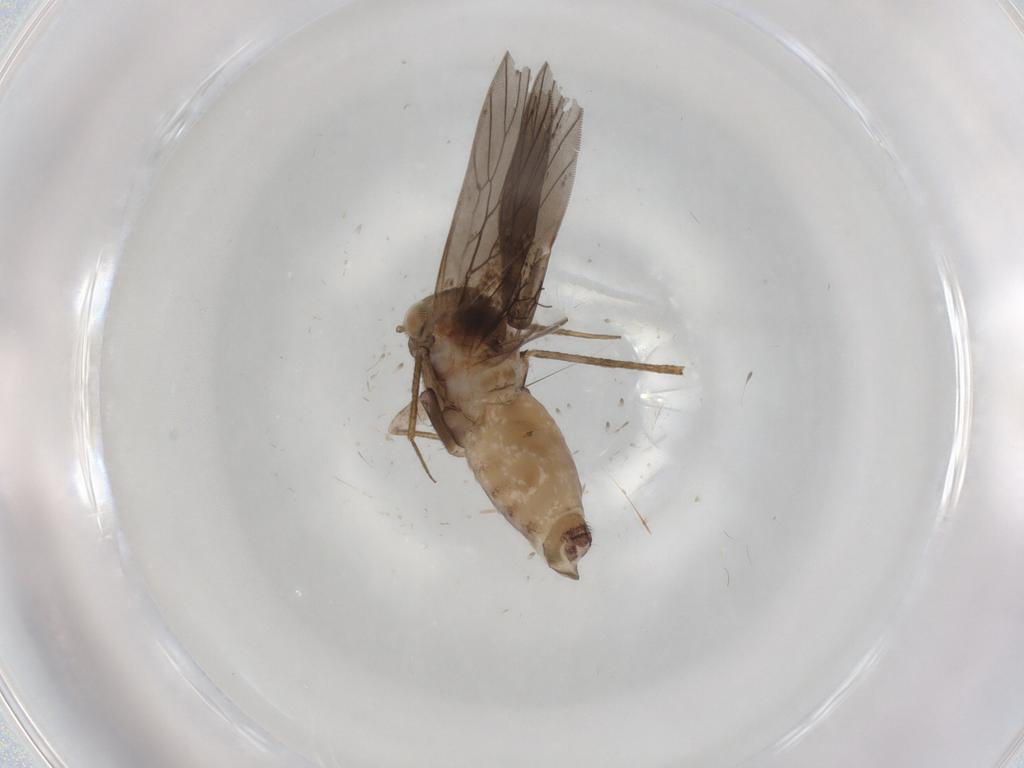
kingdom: Animalia
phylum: Arthropoda
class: Insecta
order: Psocodea
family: Lepidopsocidae
